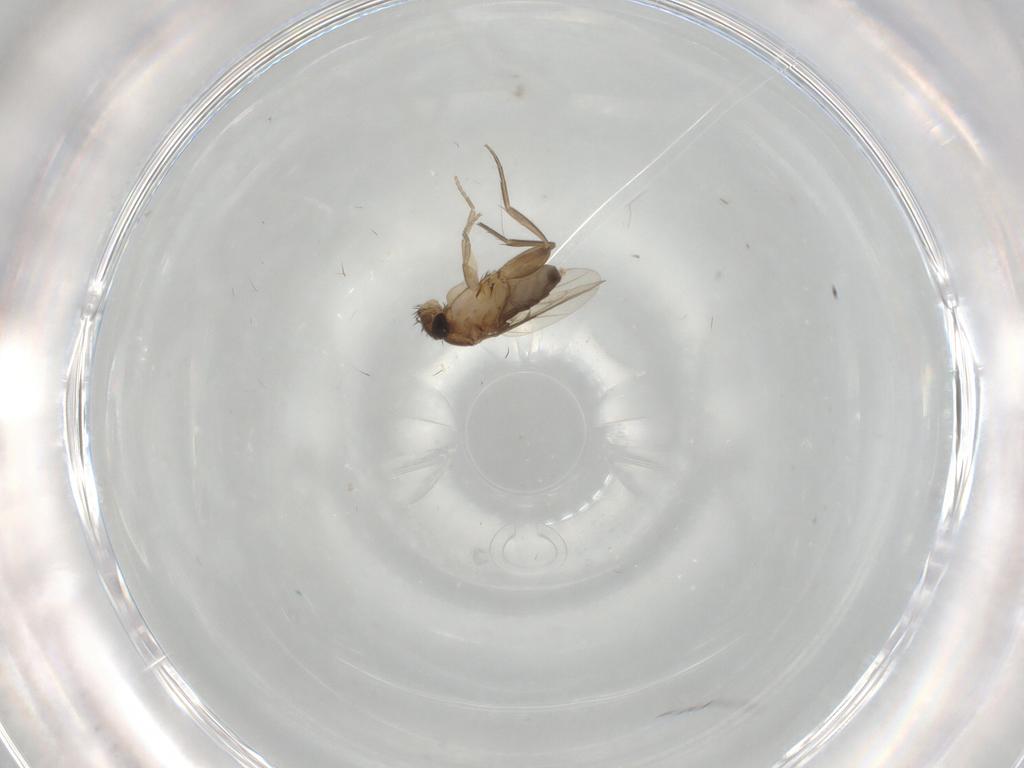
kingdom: Animalia
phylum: Arthropoda
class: Insecta
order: Diptera
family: Phoridae
